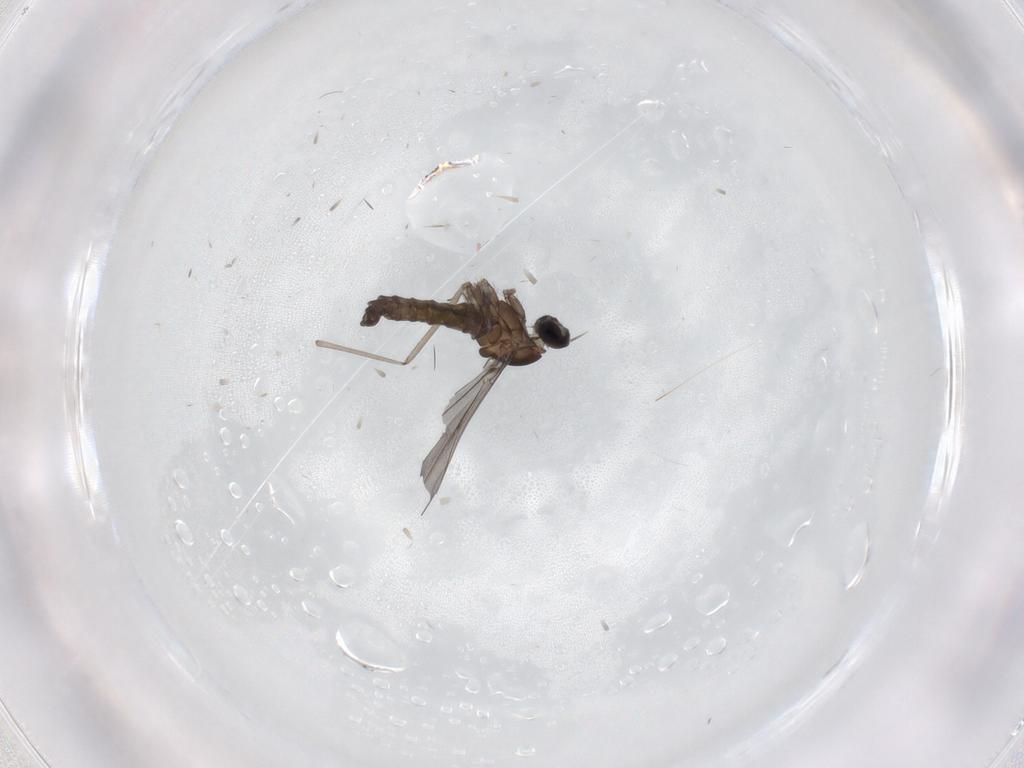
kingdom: Animalia
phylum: Arthropoda
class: Insecta
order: Diptera
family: Cecidomyiidae
